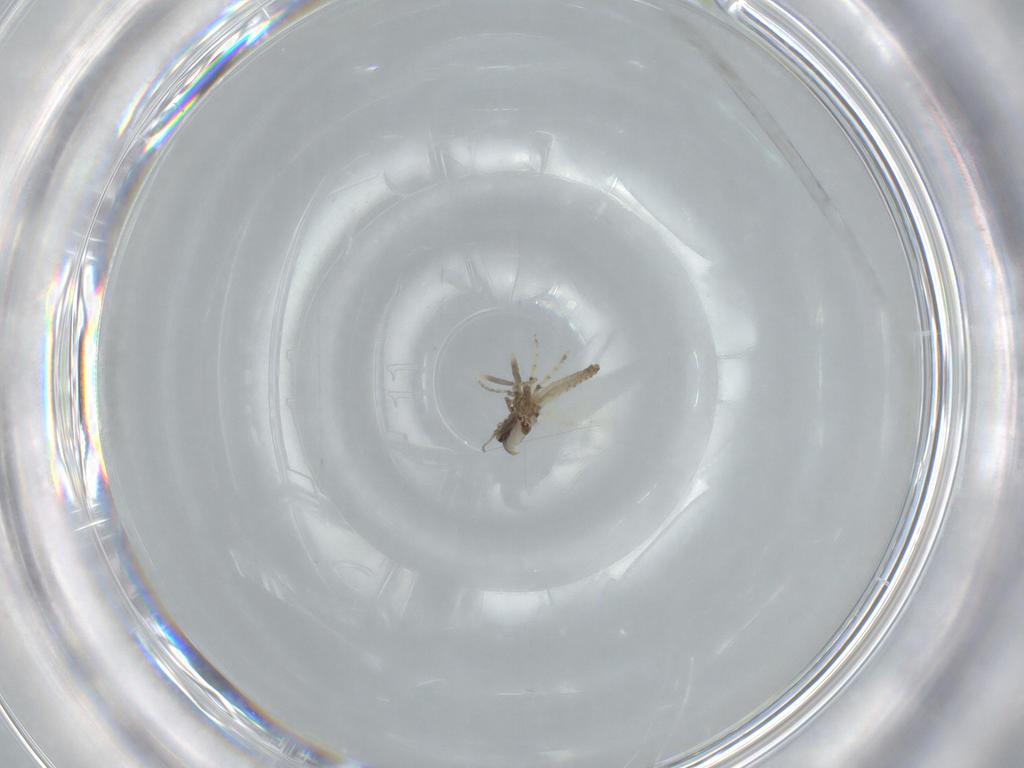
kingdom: Animalia
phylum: Arthropoda
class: Insecta
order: Diptera
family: Ceratopogonidae
